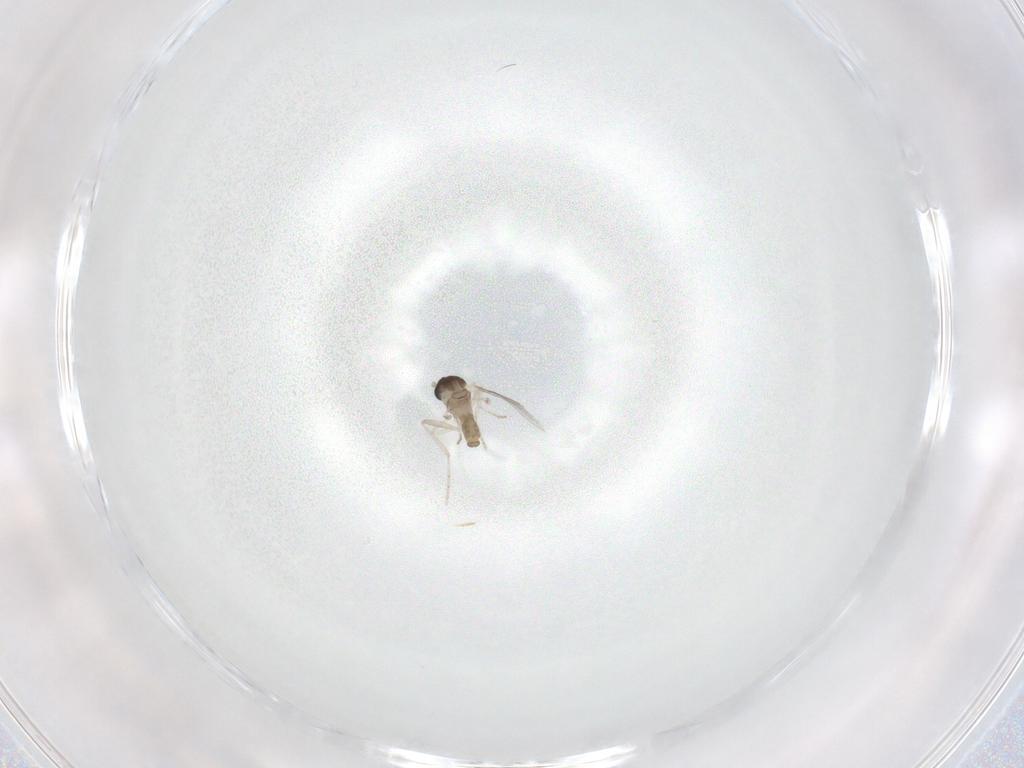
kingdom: Animalia
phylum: Arthropoda
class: Insecta
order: Diptera
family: Cecidomyiidae
